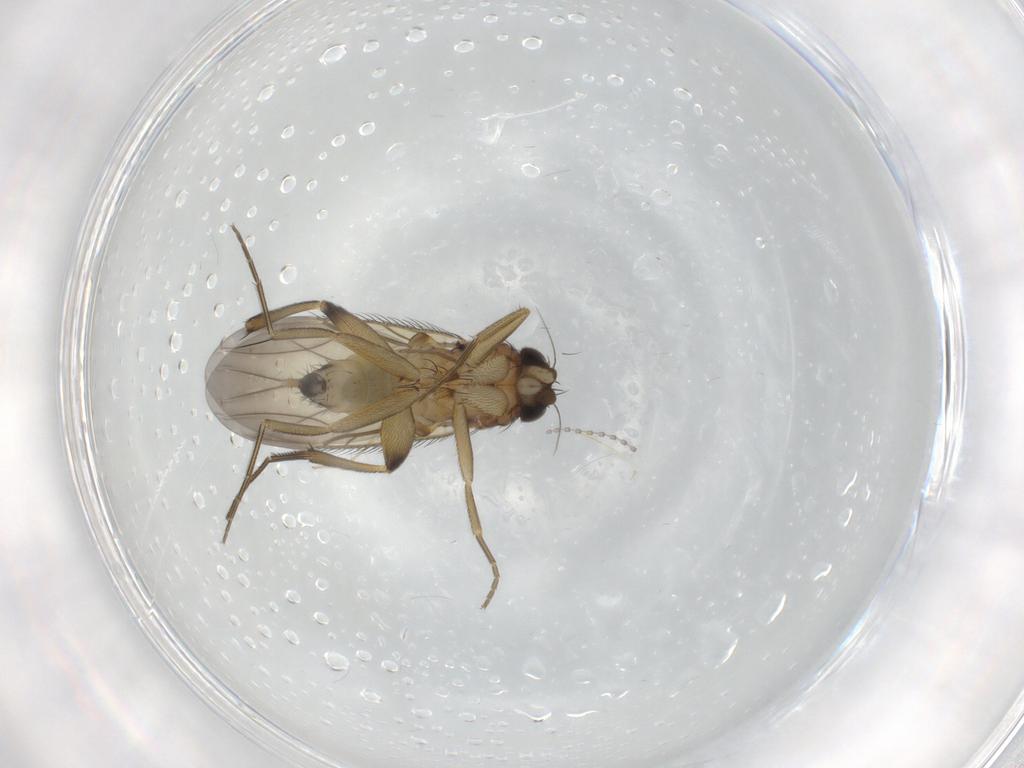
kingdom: Animalia
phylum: Arthropoda
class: Insecta
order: Diptera
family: Phoridae
